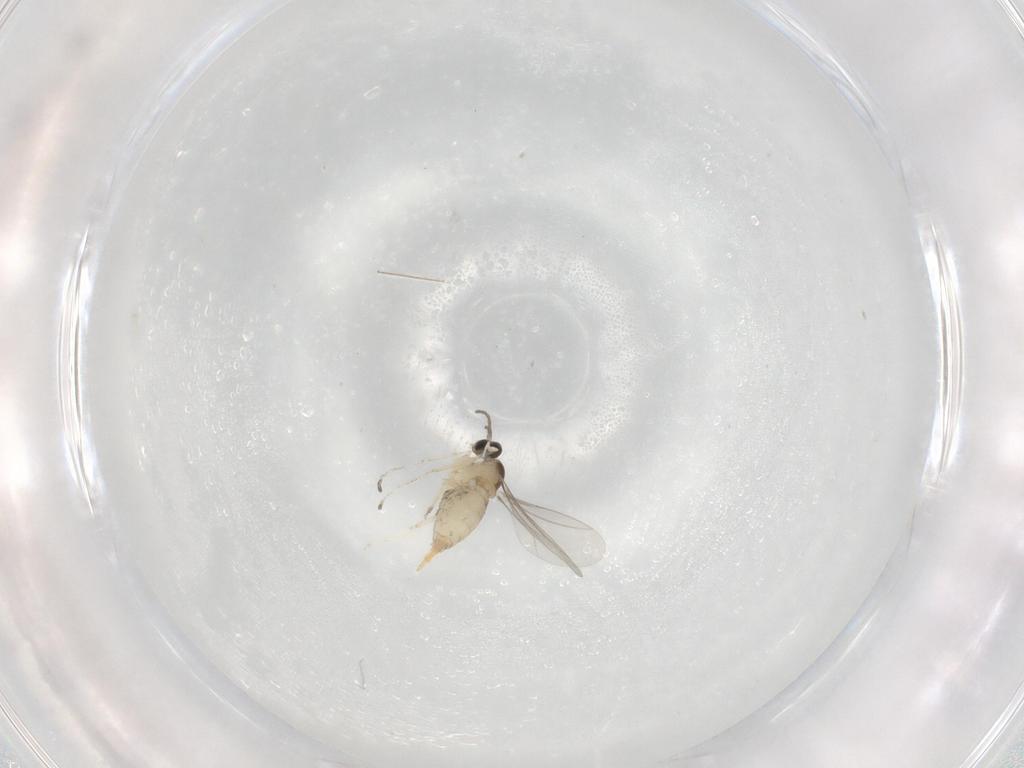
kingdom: Animalia
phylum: Arthropoda
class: Insecta
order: Diptera
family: Cecidomyiidae
